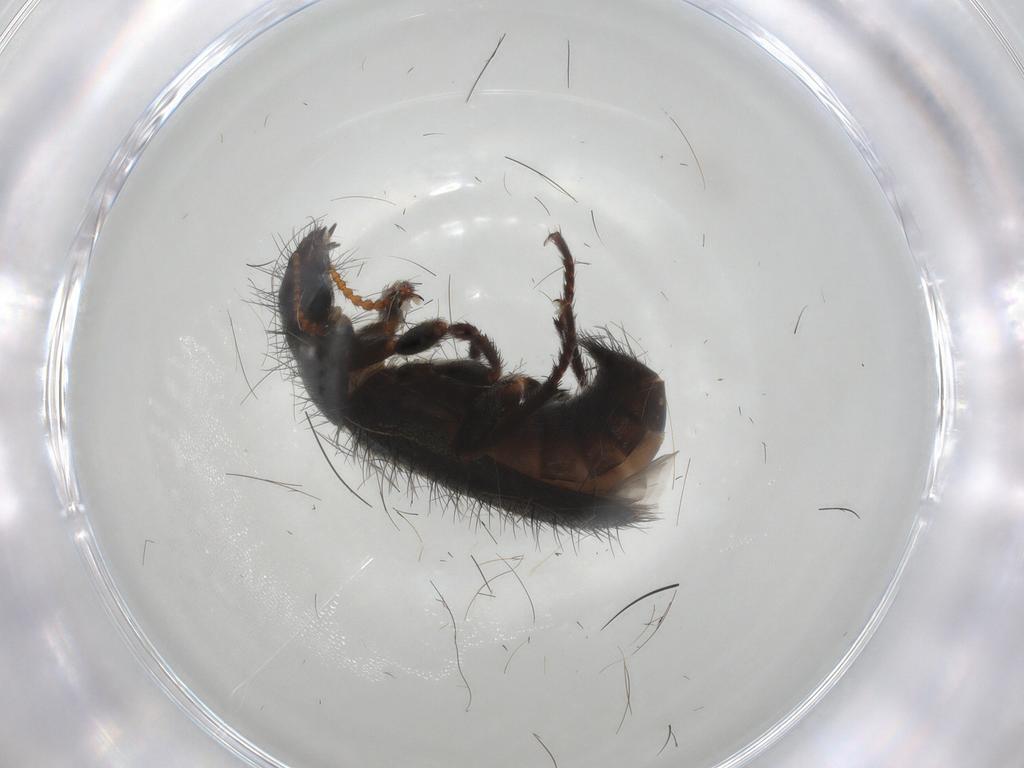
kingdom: Animalia
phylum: Arthropoda
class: Insecta
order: Coleoptera
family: Melyridae
